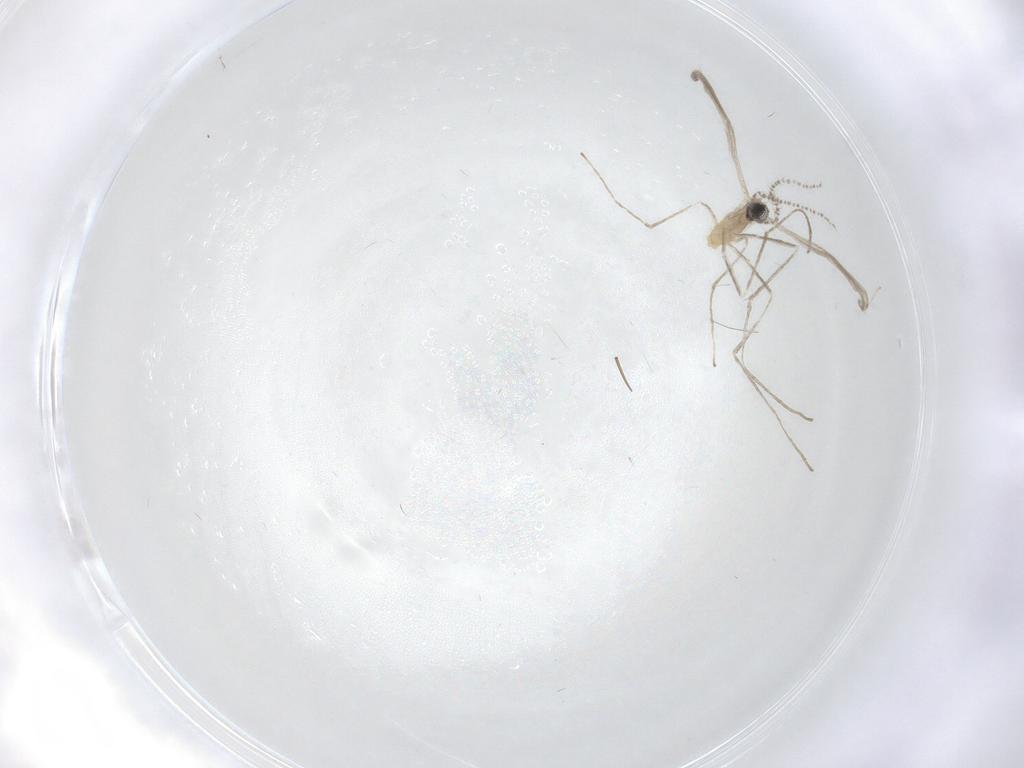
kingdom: Animalia
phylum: Arthropoda
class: Insecta
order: Diptera
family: Cecidomyiidae
